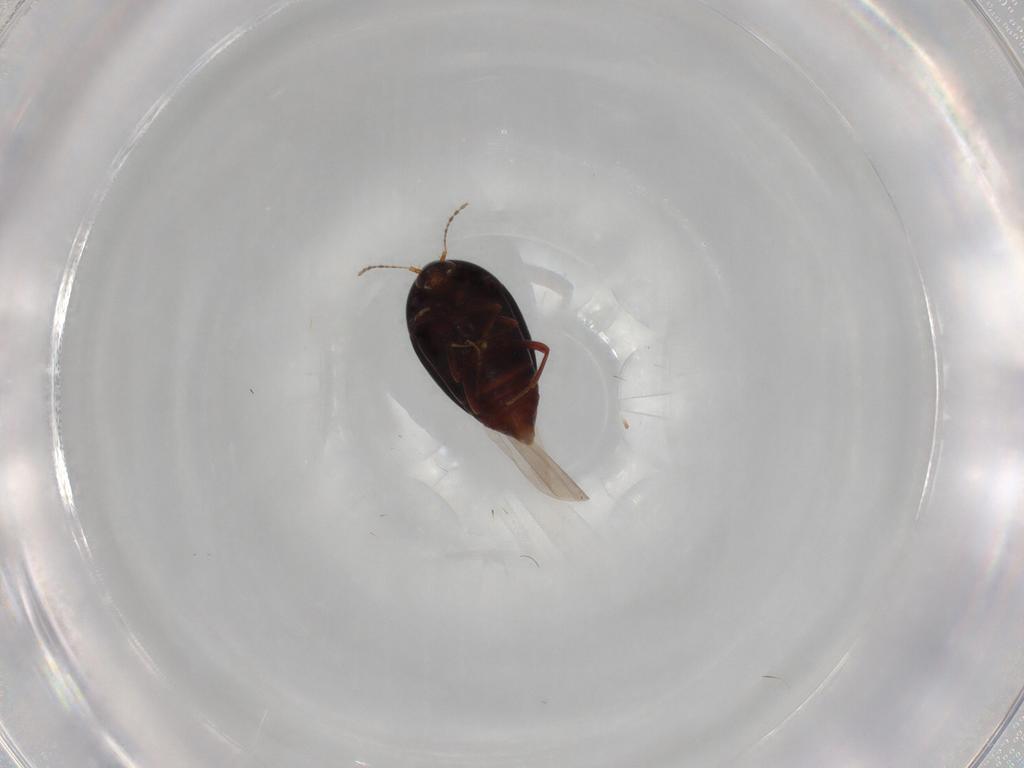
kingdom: Animalia
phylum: Arthropoda
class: Insecta
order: Coleoptera
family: Staphylinidae
